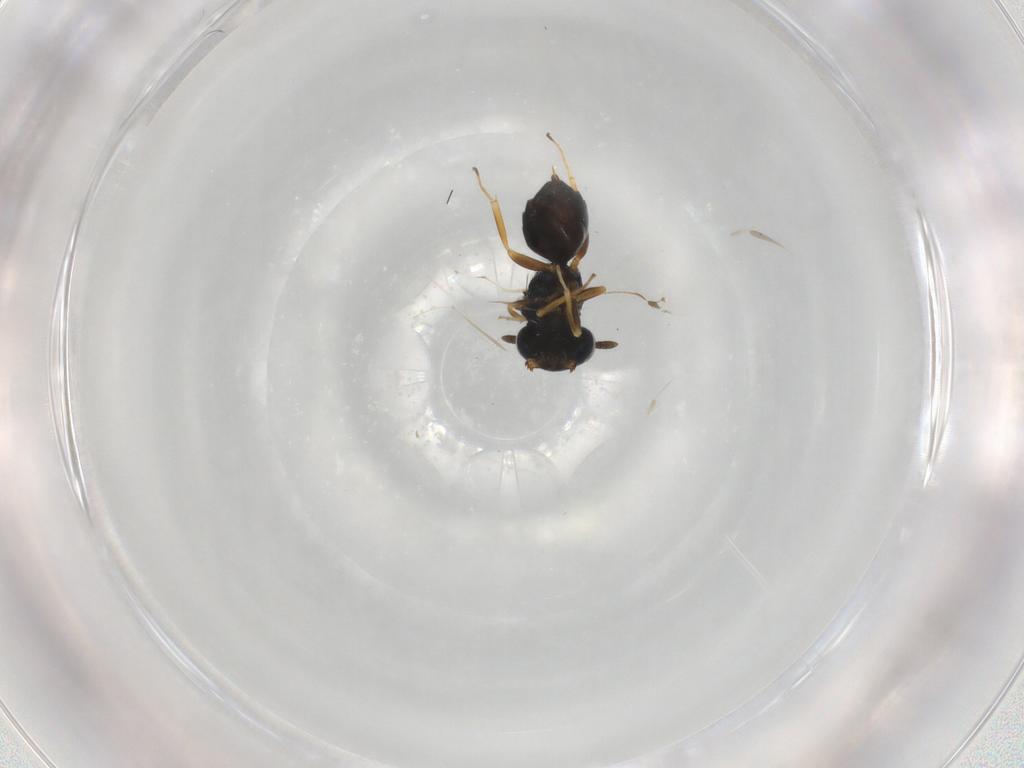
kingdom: Animalia
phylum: Arthropoda
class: Insecta
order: Hymenoptera
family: Pteromalidae
